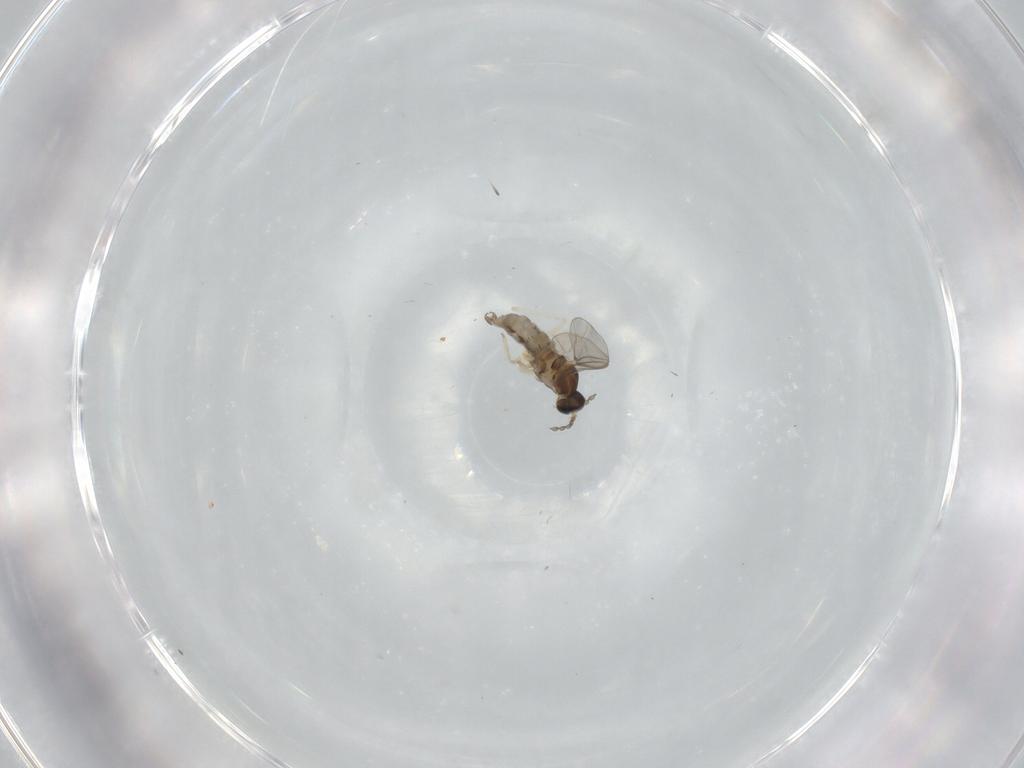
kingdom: Animalia
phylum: Arthropoda
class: Insecta
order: Diptera
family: Cecidomyiidae
